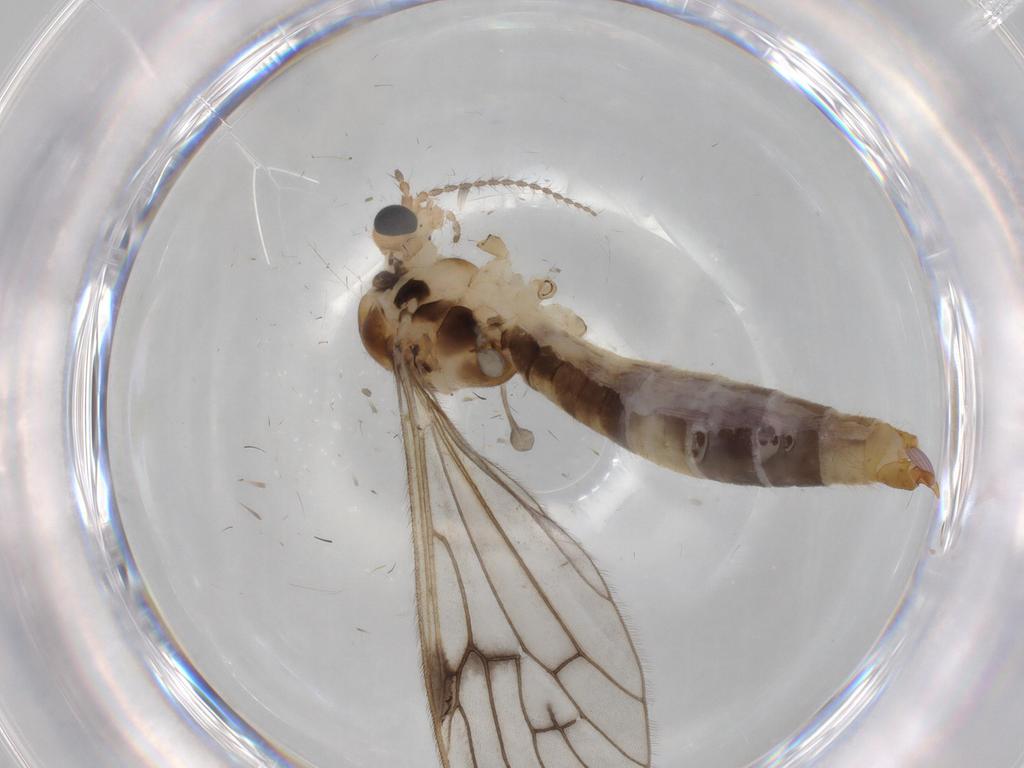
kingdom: Animalia
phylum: Arthropoda
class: Insecta
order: Diptera
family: Limoniidae
